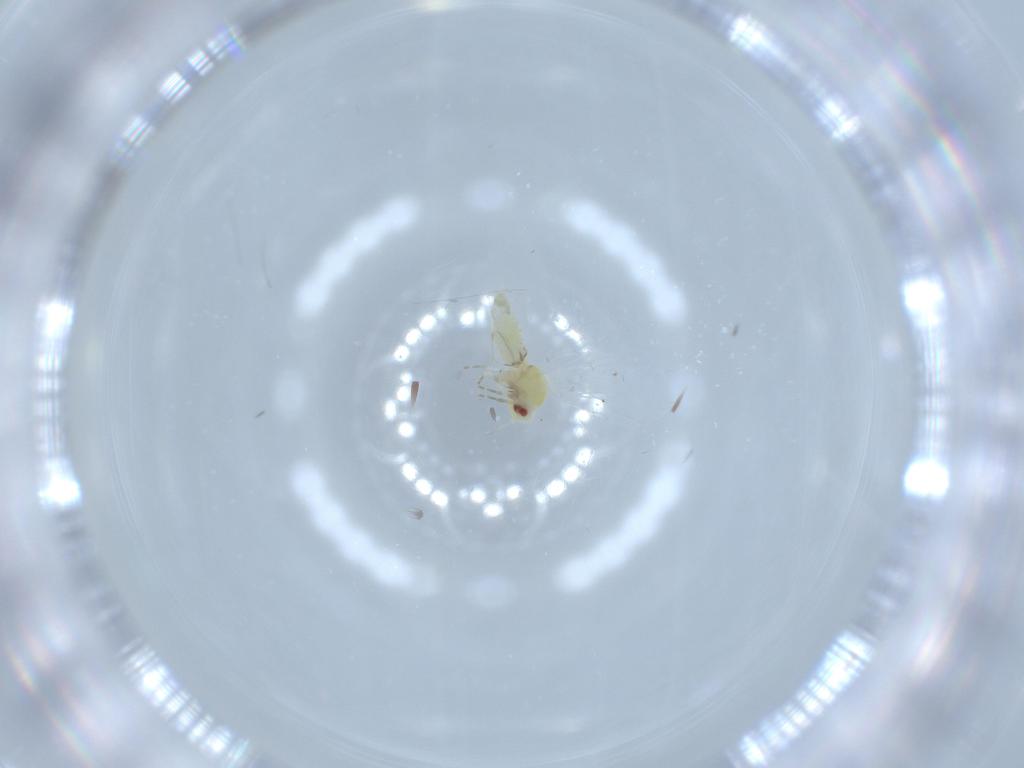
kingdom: Animalia
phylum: Arthropoda
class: Insecta
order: Hemiptera
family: Aleyrodidae
